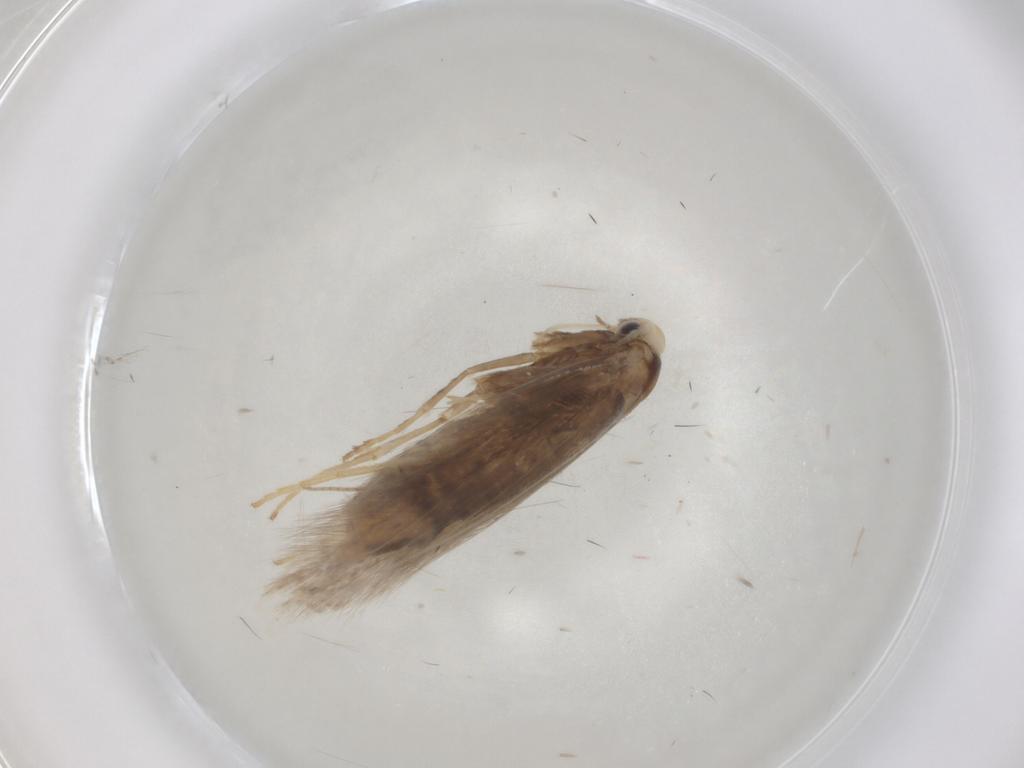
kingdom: Animalia
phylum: Arthropoda
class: Insecta
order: Lepidoptera
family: Gracillariidae
